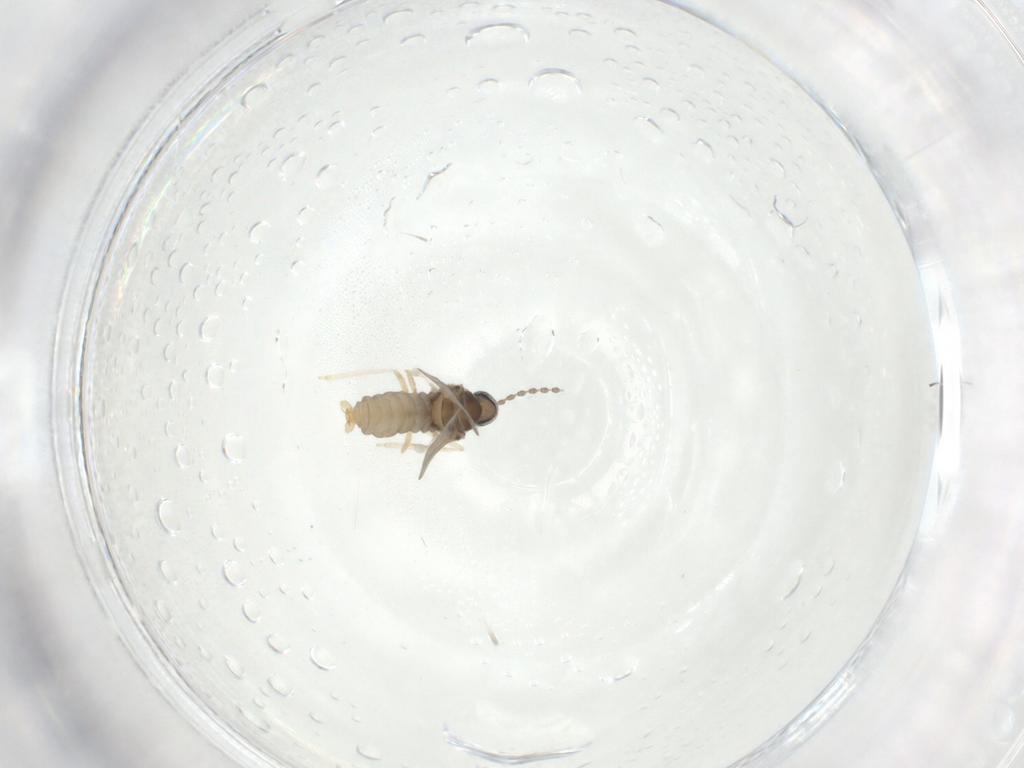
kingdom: Animalia
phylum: Arthropoda
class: Insecta
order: Diptera
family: Cecidomyiidae
